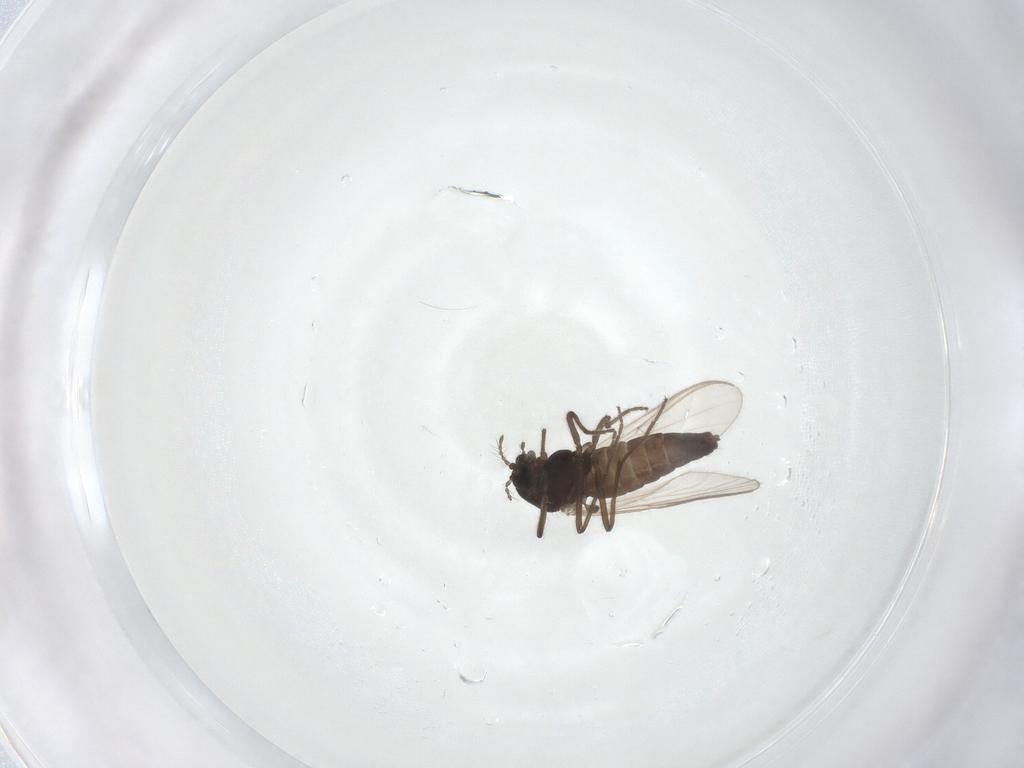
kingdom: Animalia
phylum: Arthropoda
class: Insecta
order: Diptera
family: Chironomidae
